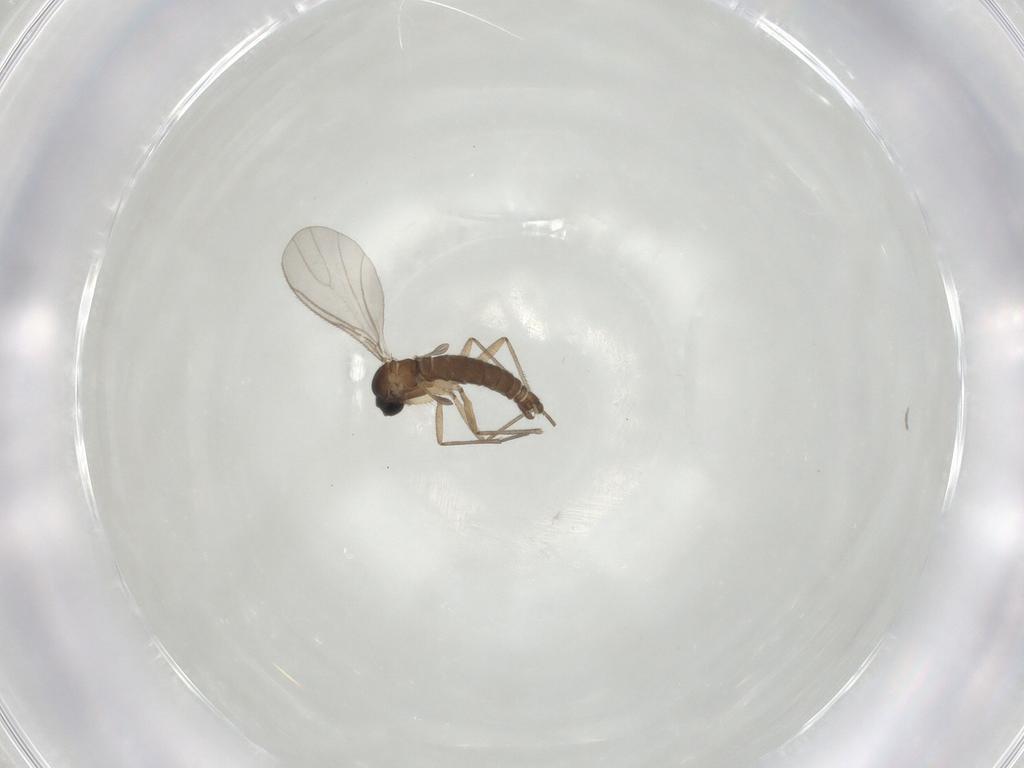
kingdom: Animalia
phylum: Arthropoda
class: Insecta
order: Diptera
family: Sciaridae
